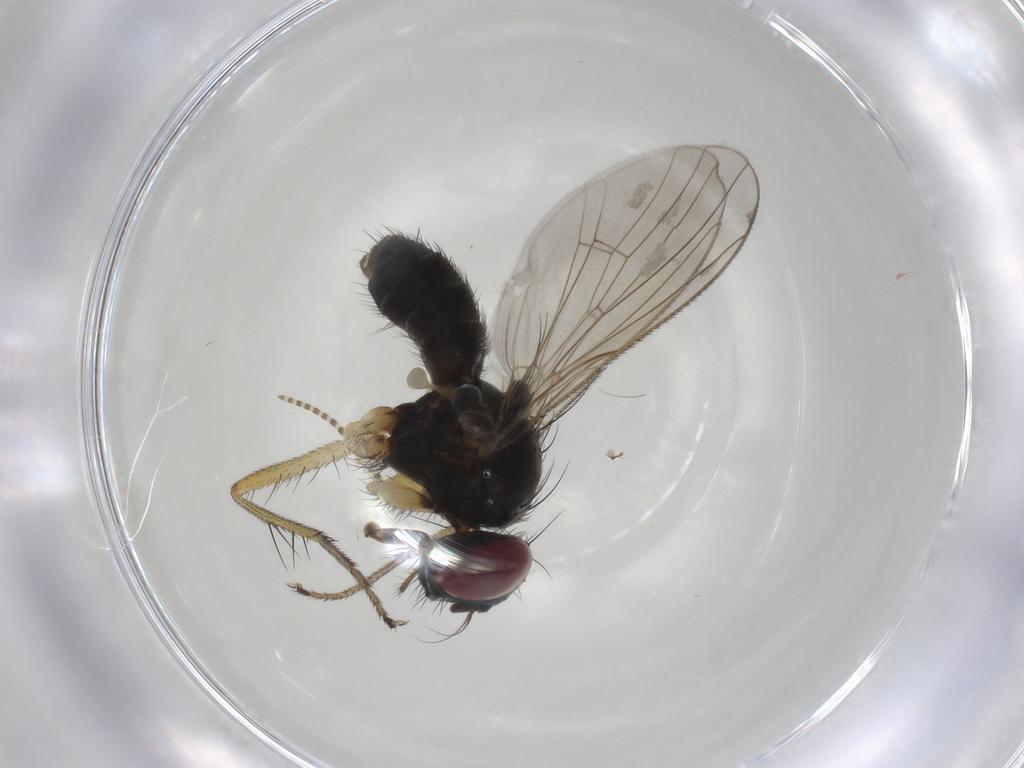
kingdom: Animalia
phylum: Arthropoda
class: Insecta
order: Diptera
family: Muscidae
